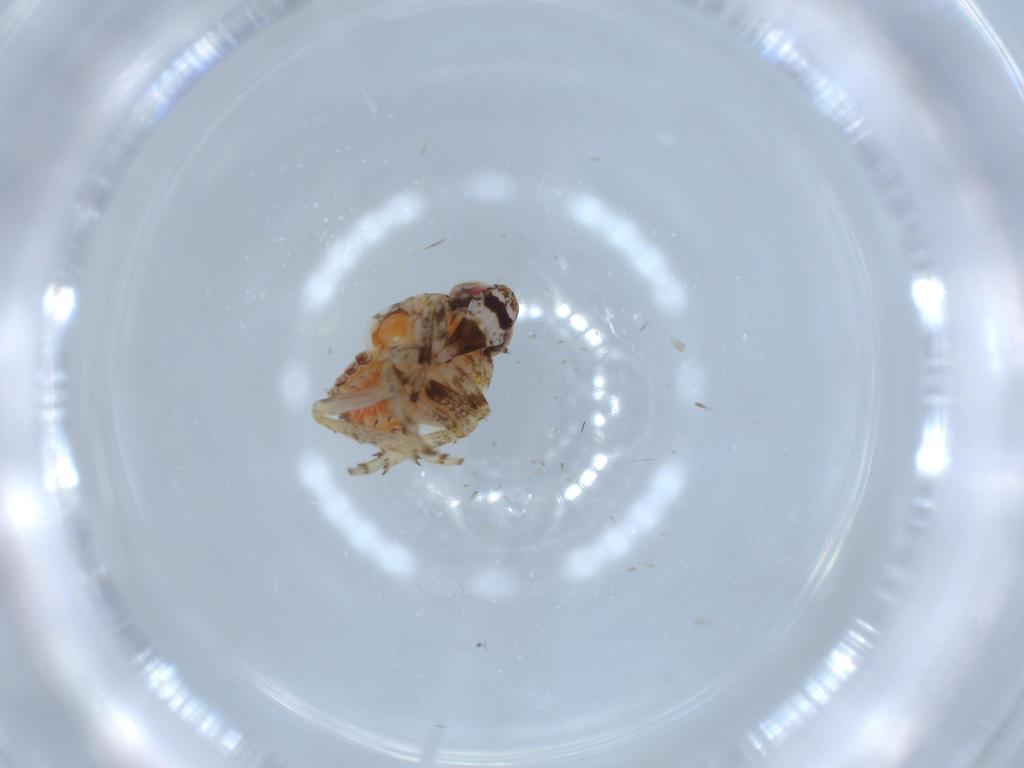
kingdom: Animalia
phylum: Arthropoda
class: Insecta
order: Hemiptera
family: Issidae
